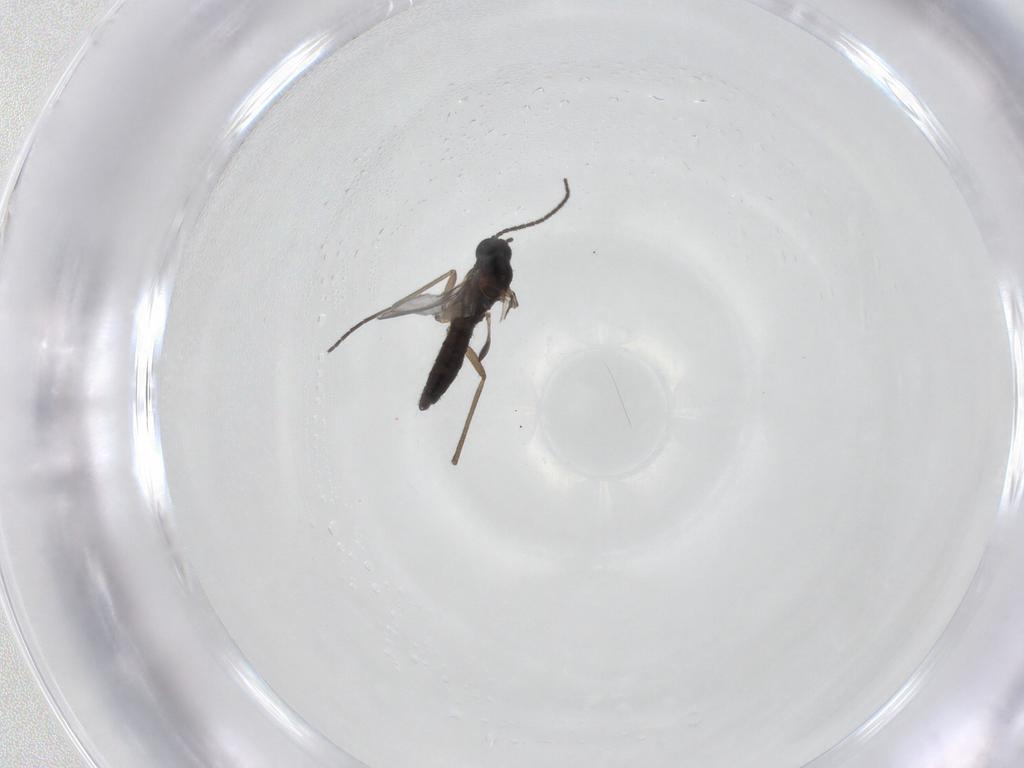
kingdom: Animalia
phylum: Arthropoda
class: Insecta
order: Diptera
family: Sciaridae
